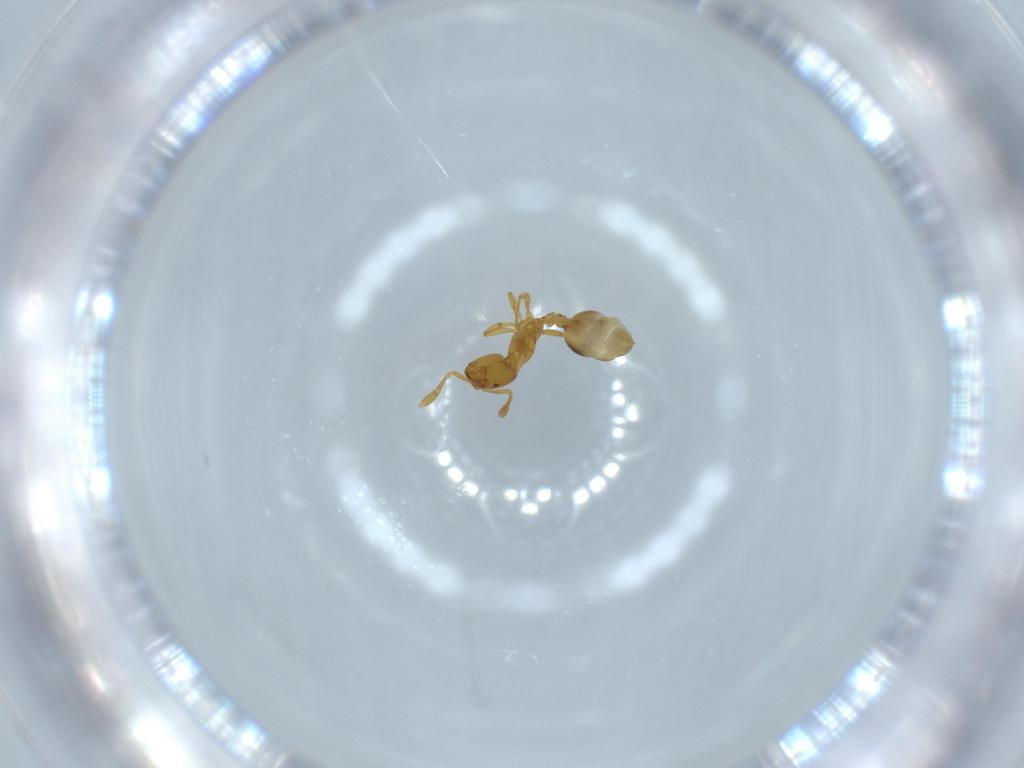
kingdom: Animalia
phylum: Arthropoda
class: Insecta
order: Hymenoptera
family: Formicidae
